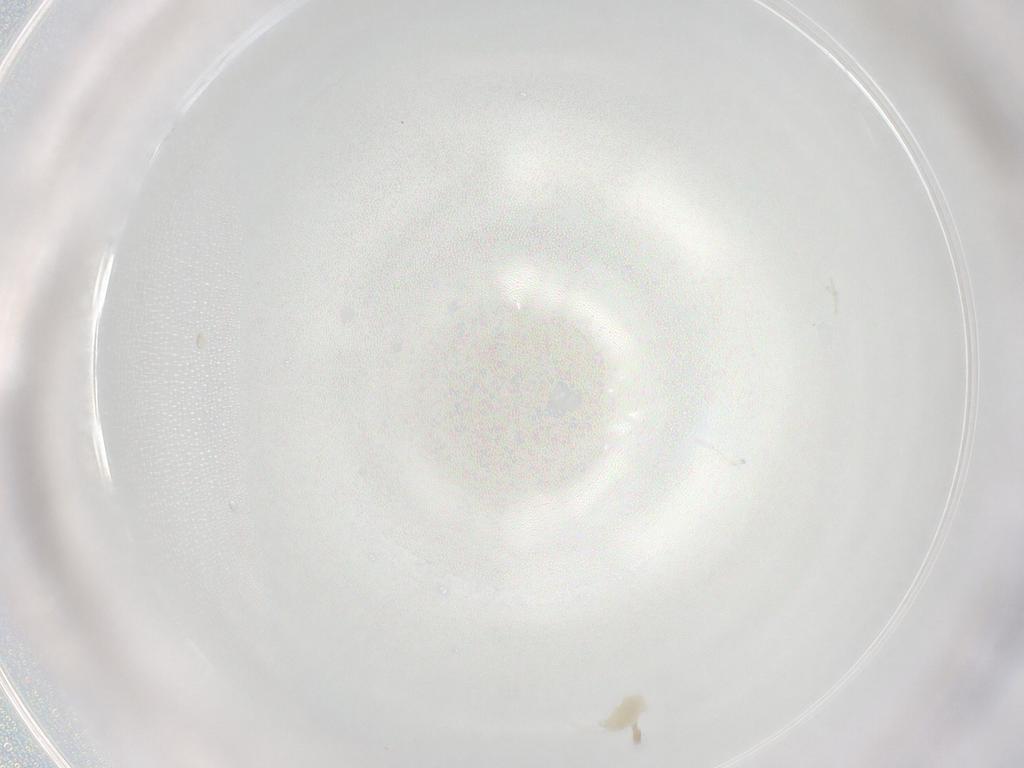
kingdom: Animalia
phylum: Arthropoda
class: Arachnida
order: Trombidiformes
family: Eupodidae
